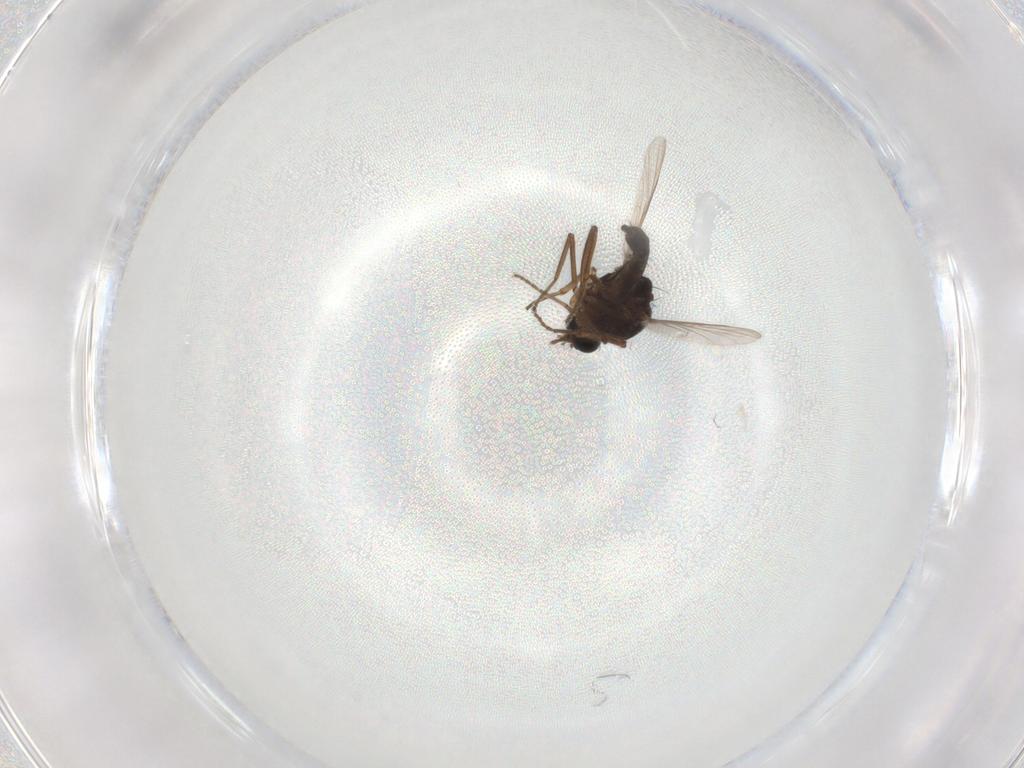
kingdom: Animalia
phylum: Arthropoda
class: Insecta
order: Diptera
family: Ceratopogonidae
